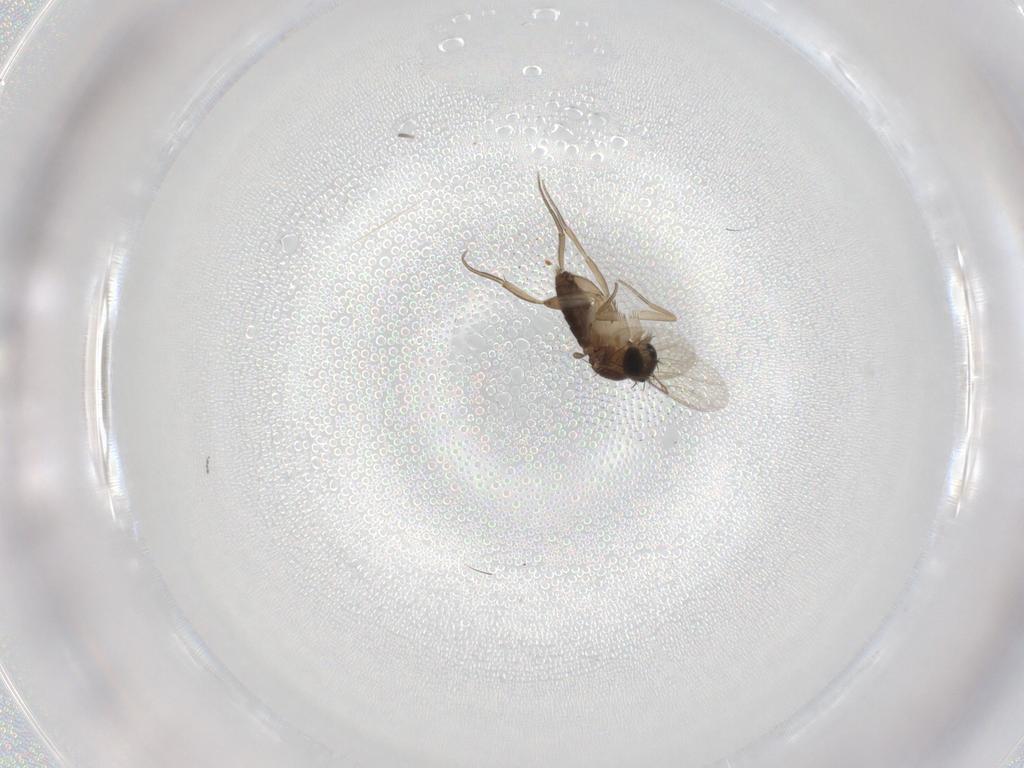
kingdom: Animalia
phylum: Arthropoda
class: Insecta
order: Diptera
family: Phoridae
